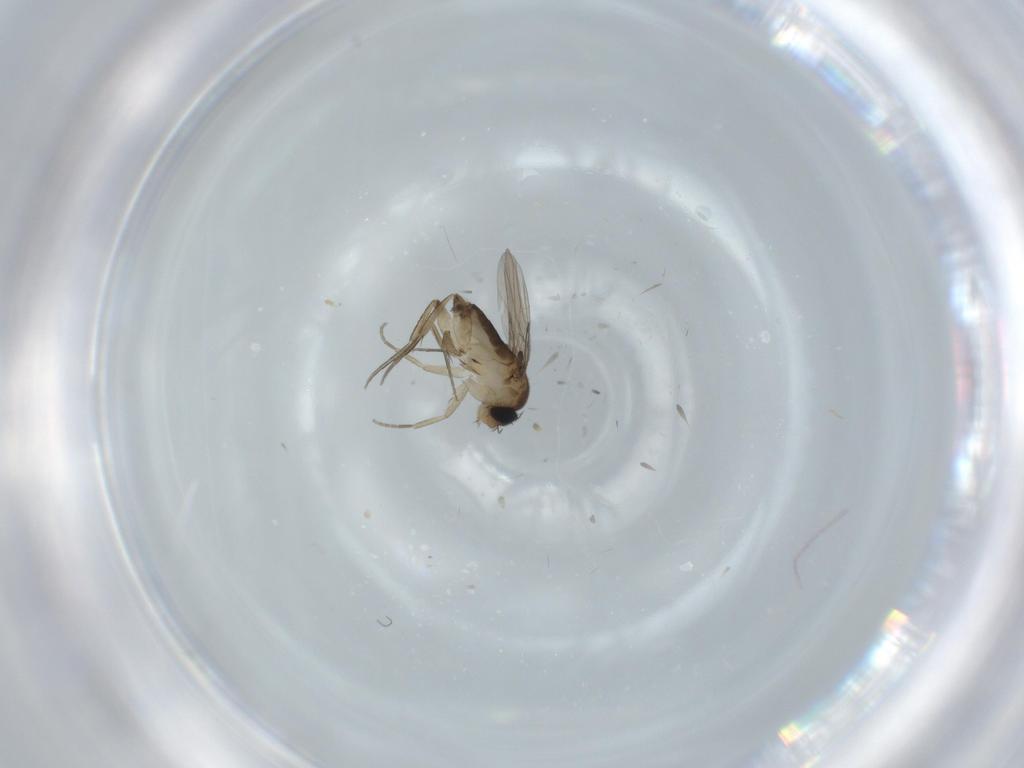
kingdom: Animalia
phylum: Arthropoda
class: Insecta
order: Diptera
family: Phoridae
